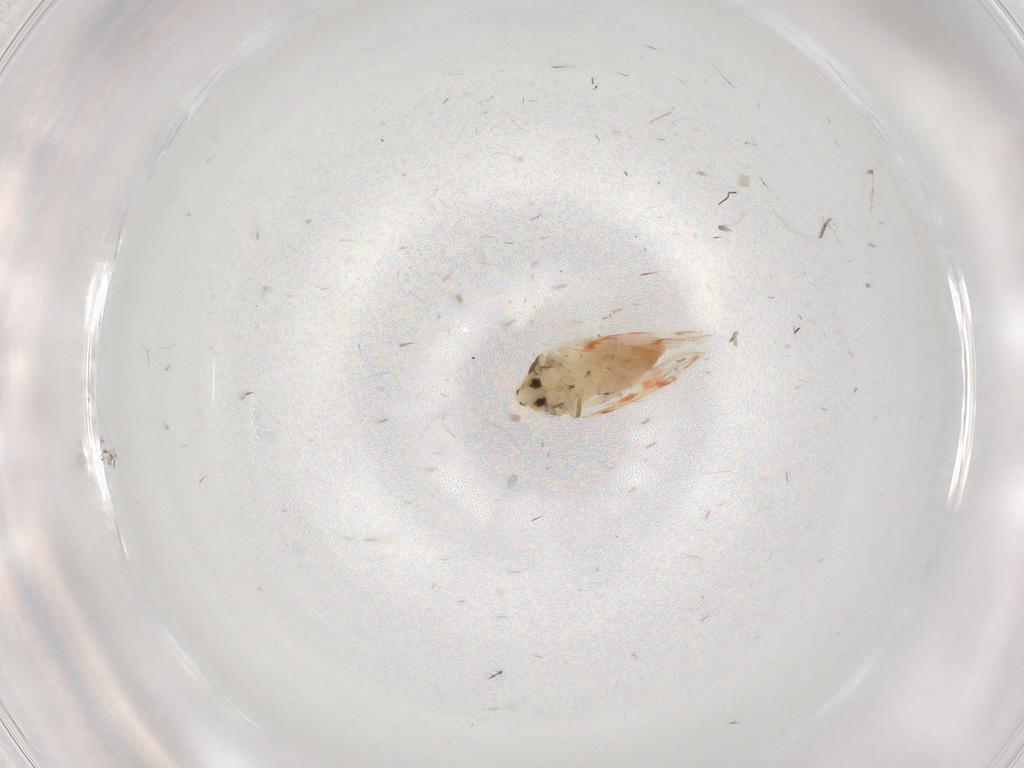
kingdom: Animalia
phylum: Arthropoda
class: Insecta
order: Hemiptera
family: Aleyrodidae
